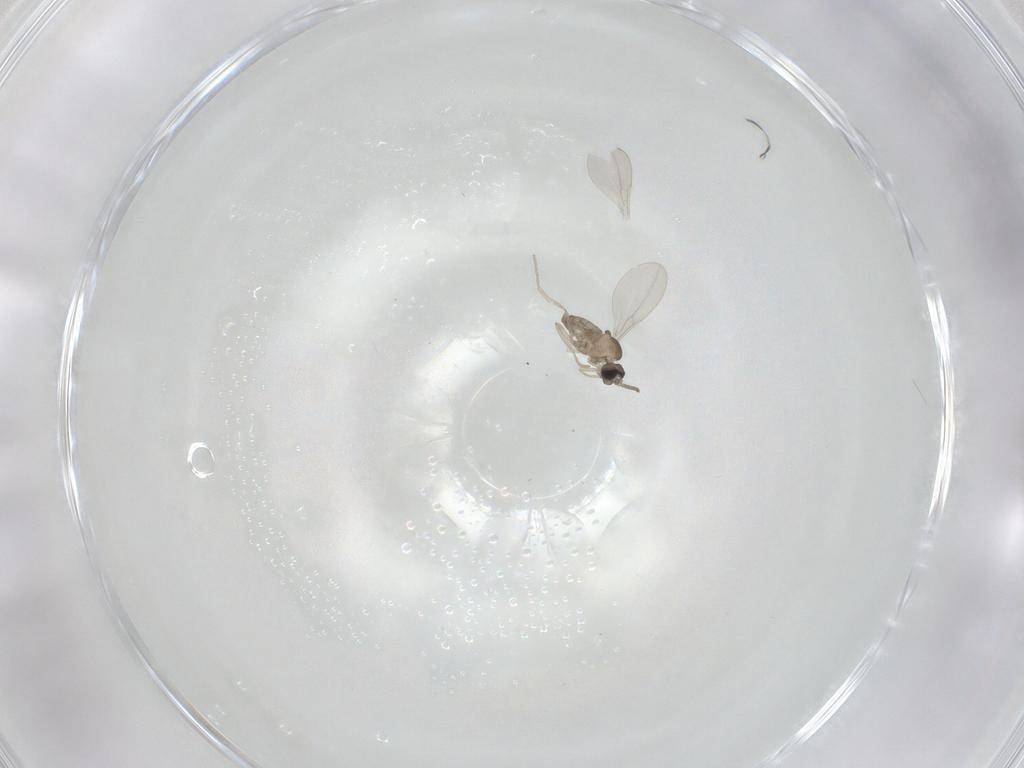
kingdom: Animalia
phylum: Arthropoda
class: Insecta
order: Diptera
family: Cecidomyiidae
